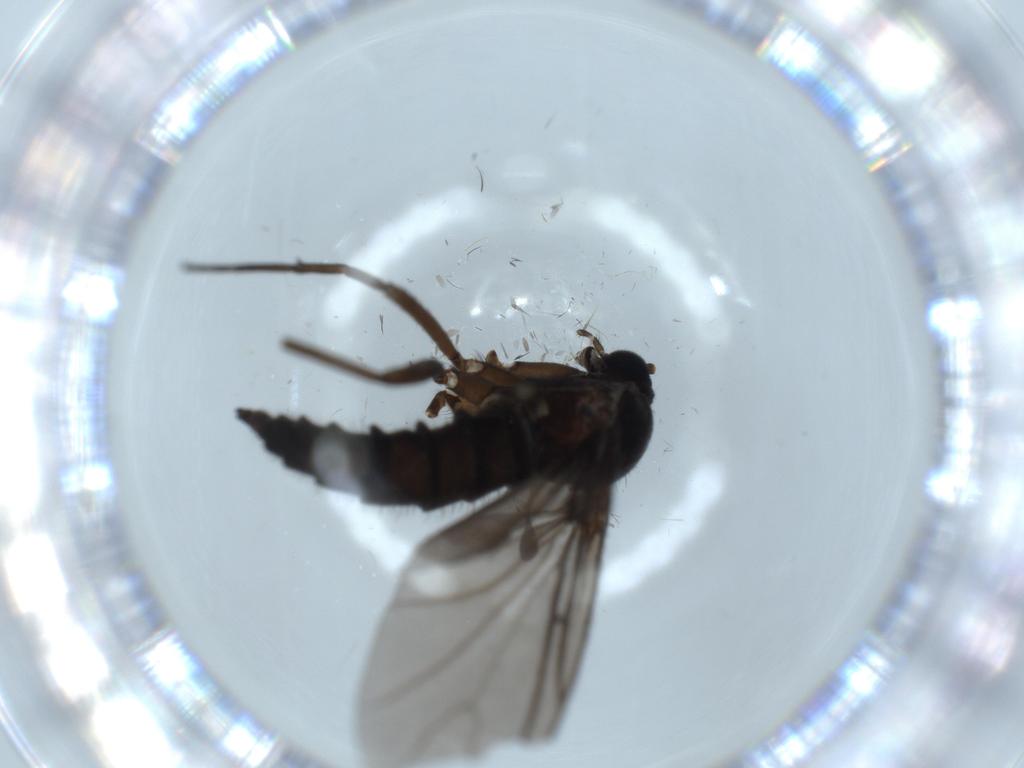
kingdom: Animalia
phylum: Arthropoda
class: Insecta
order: Diptera
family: Sciaridae
